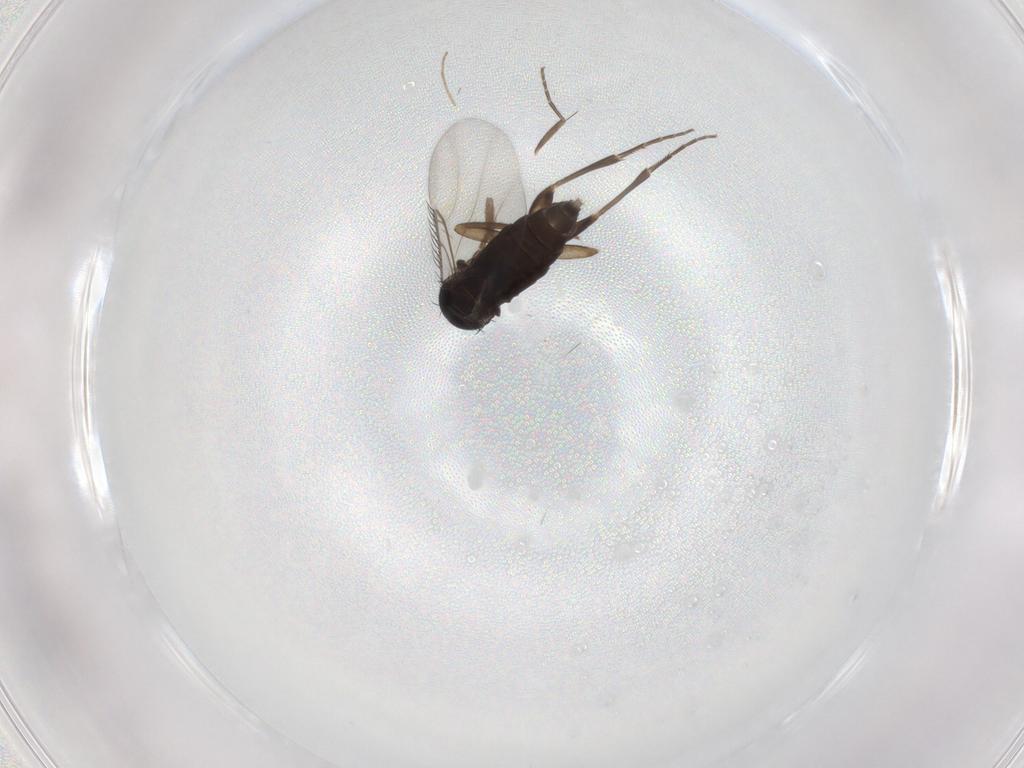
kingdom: Animalia
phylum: Arthropoda
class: Insecta
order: Diptera
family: Phoridae
